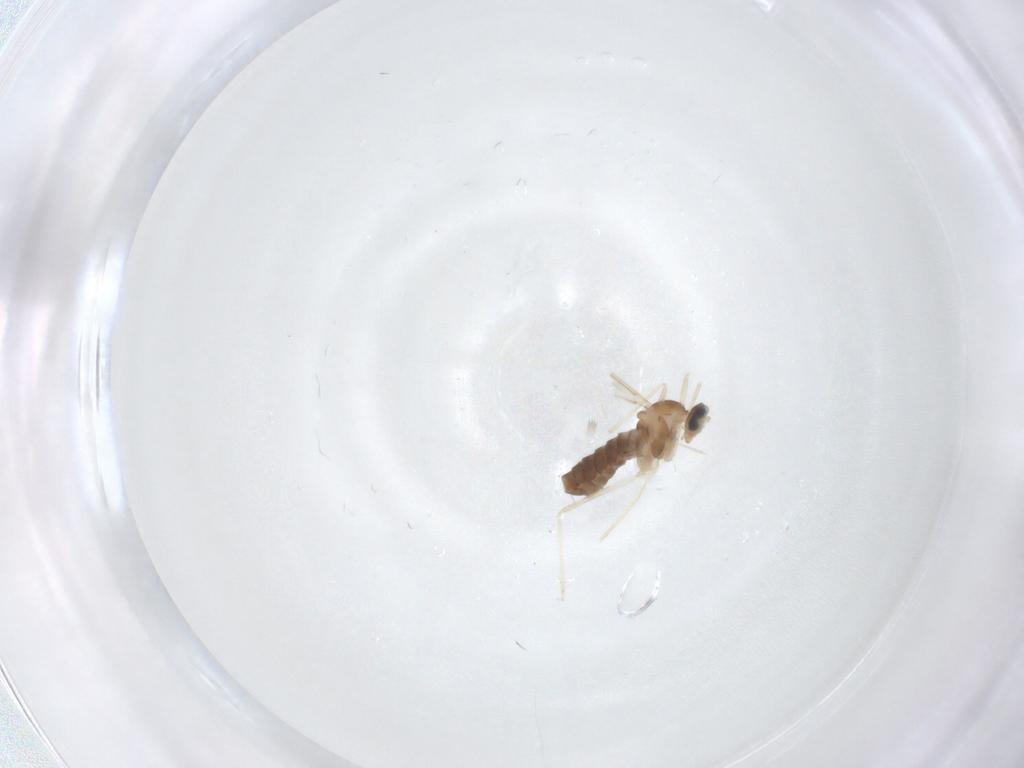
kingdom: Animalia
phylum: Arthropoda
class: Insecta
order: Diptera
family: Cecidomyiidae
